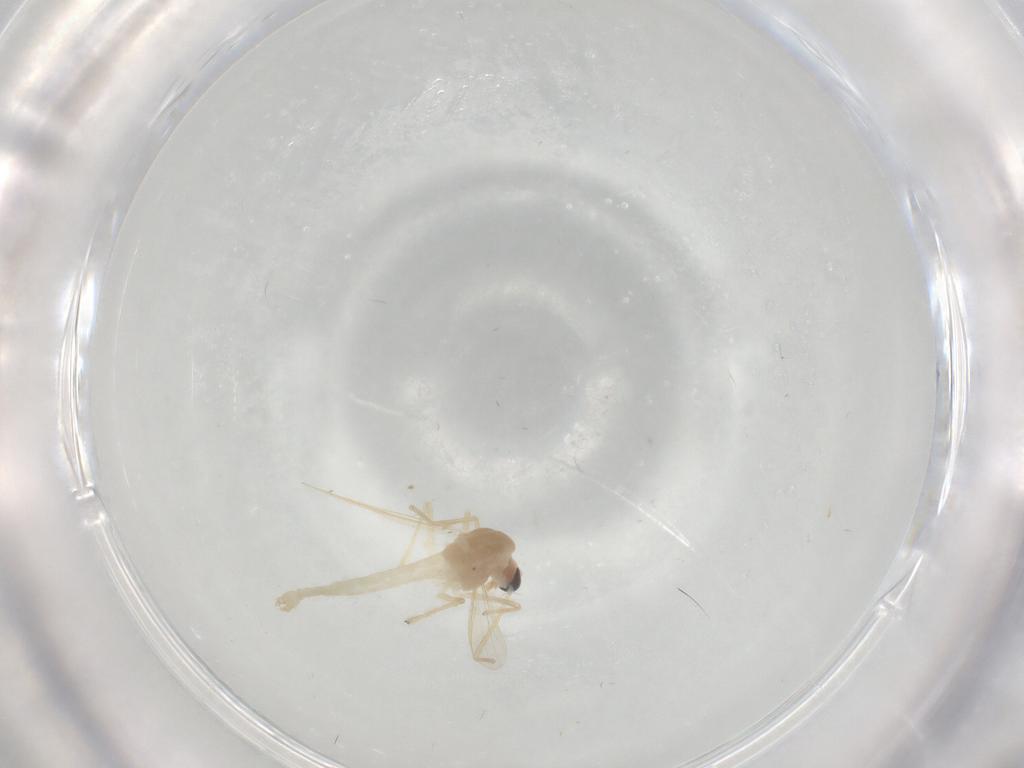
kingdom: Animalia
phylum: Arthropoda
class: Insecta
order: Diptera
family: Chironomidae
